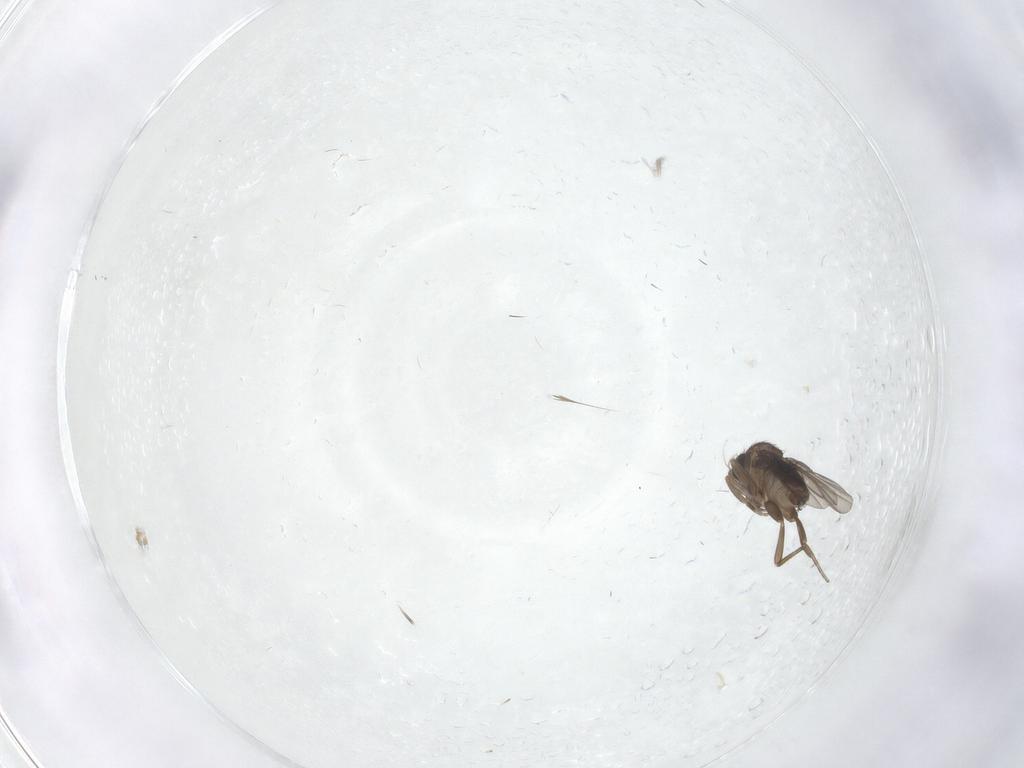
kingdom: Animalia
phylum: Arthropoda
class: Insecta
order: Diptera
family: Phoridae
